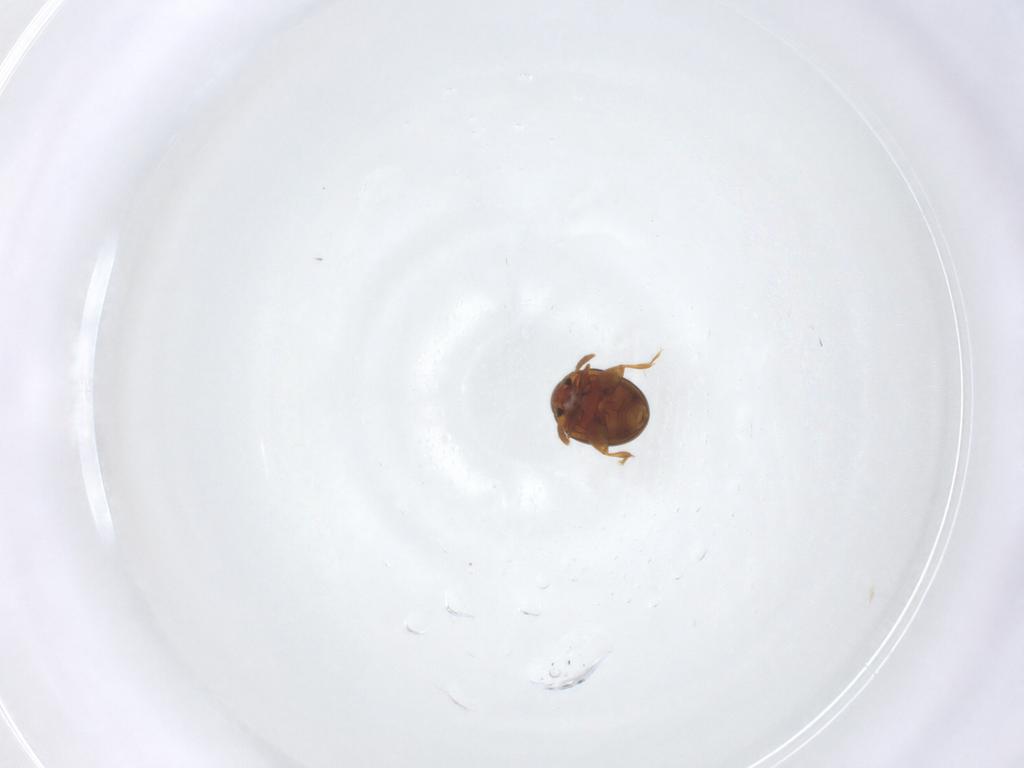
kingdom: Animalia
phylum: Arthropoda
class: Insecta
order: Coleoptera
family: Chrysomelidae
